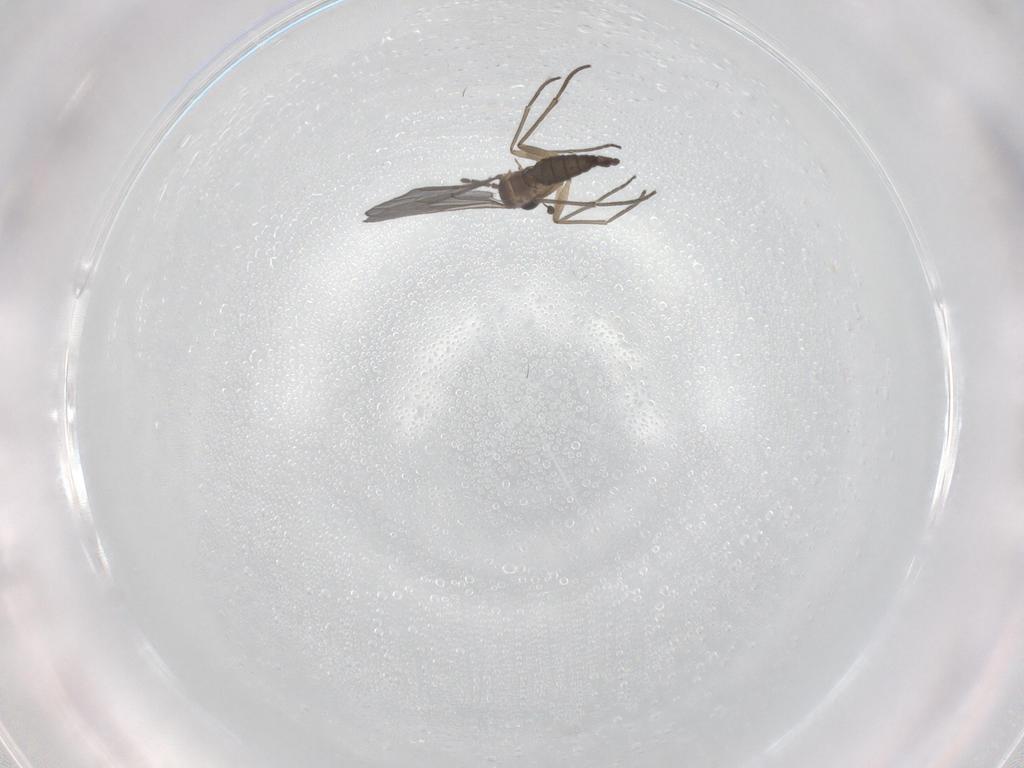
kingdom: Animalia
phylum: Arthropoda
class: Insecta
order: Diptera
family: Sciaridae
